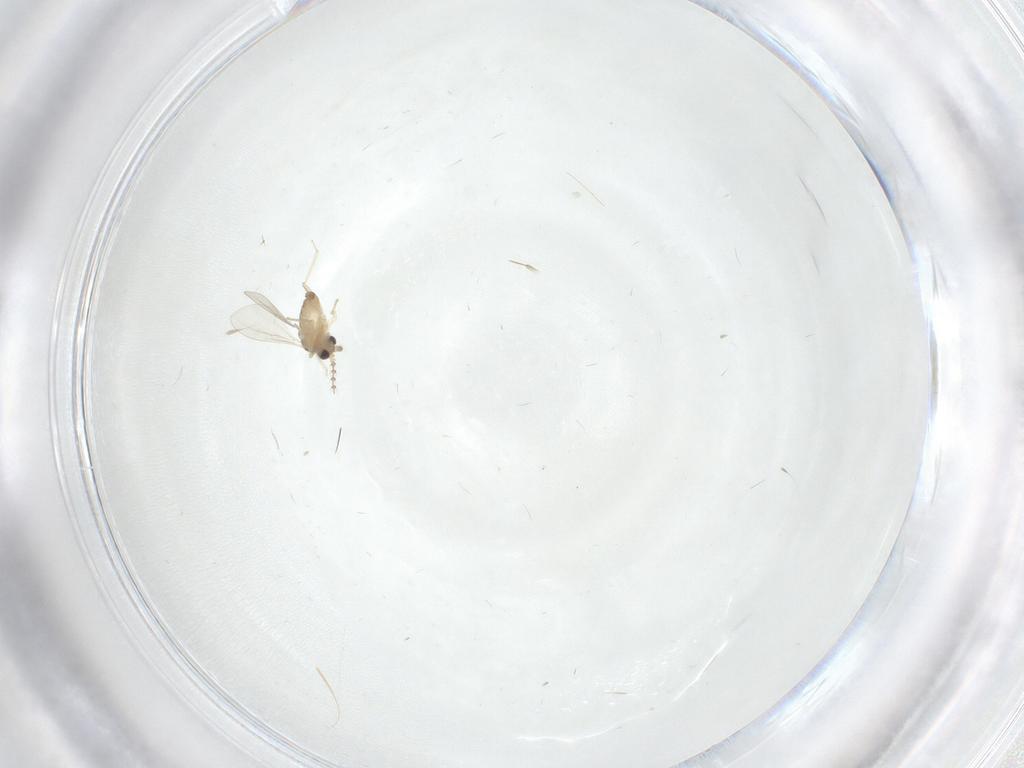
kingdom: Animalia
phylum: Arthropoda
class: Insecta
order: Diptera
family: Cecidomyiidae
